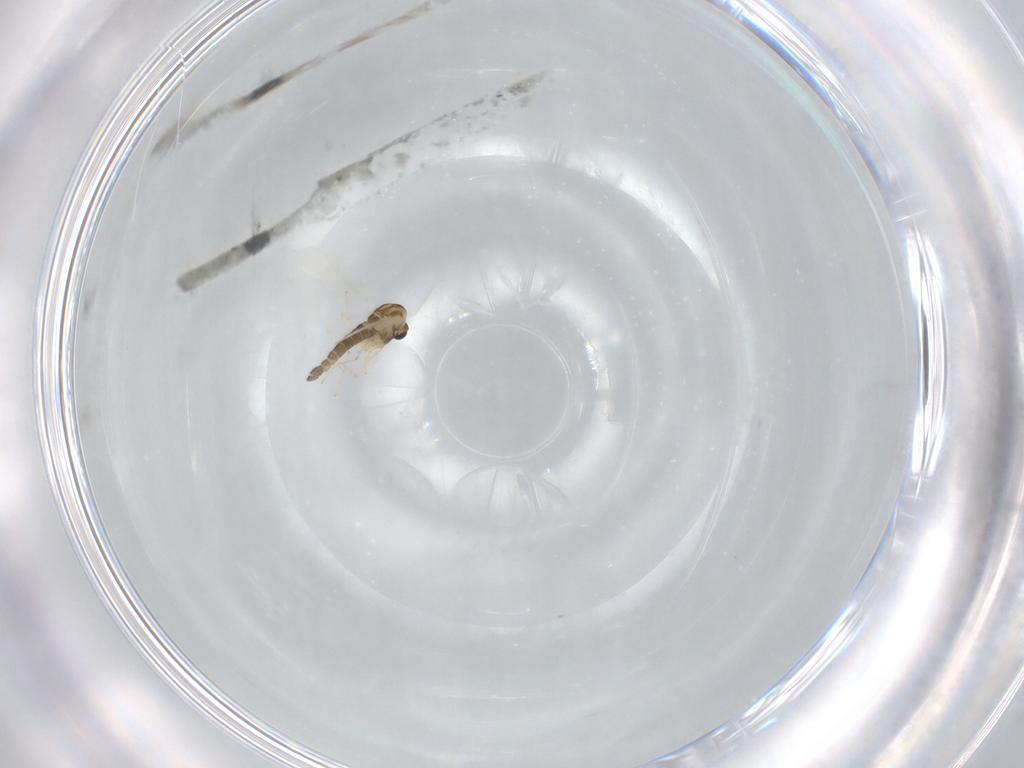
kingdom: Animalia
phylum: Arthropoda
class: Insecta
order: Diptera
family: Chironomidae
